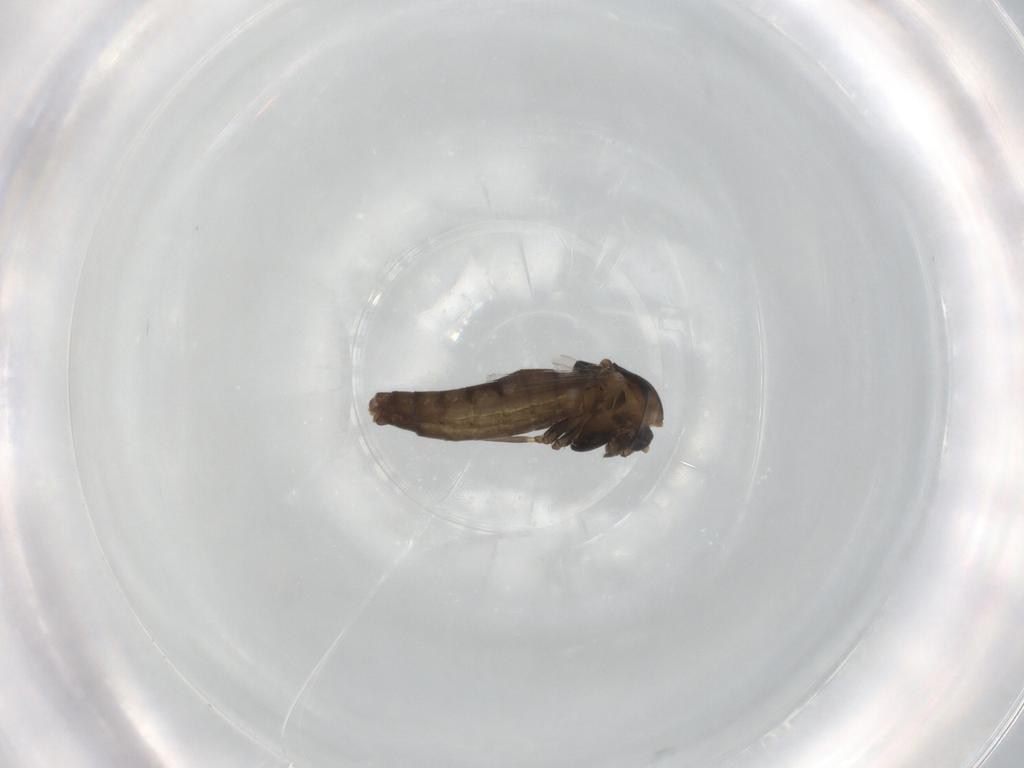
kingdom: Animalia
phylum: Arthropoda
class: Insecta
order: Diptera
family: Chironomidae
